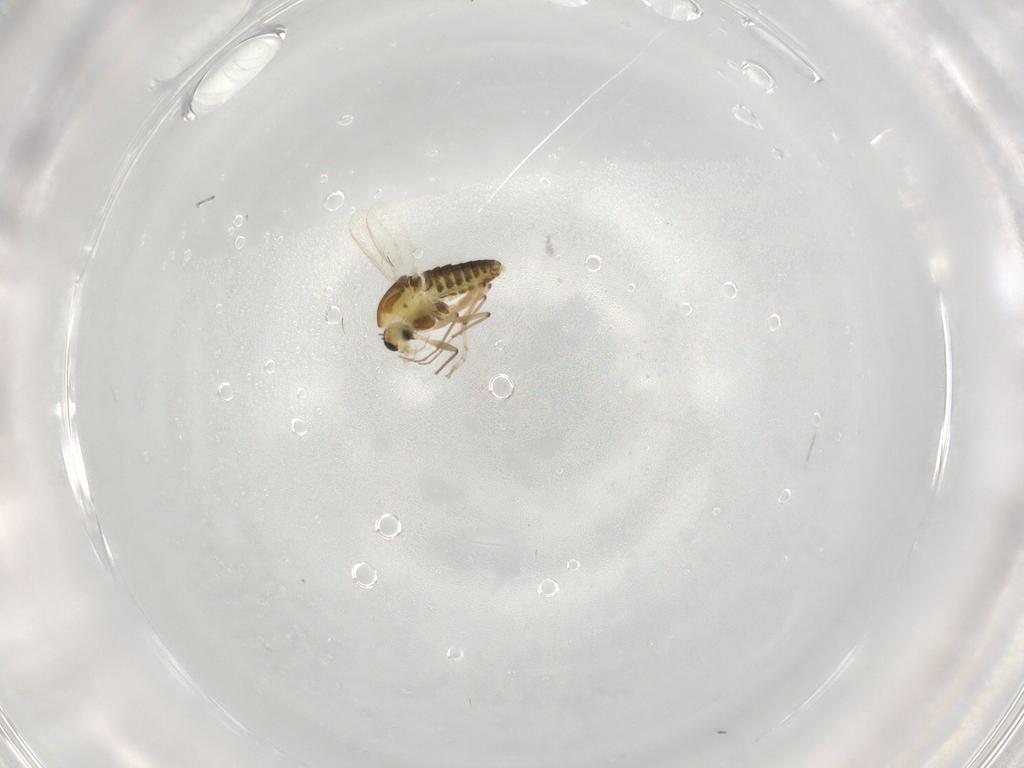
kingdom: Animalia
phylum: Arthropoda
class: Insecta
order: Diptera
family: Chironomidae
